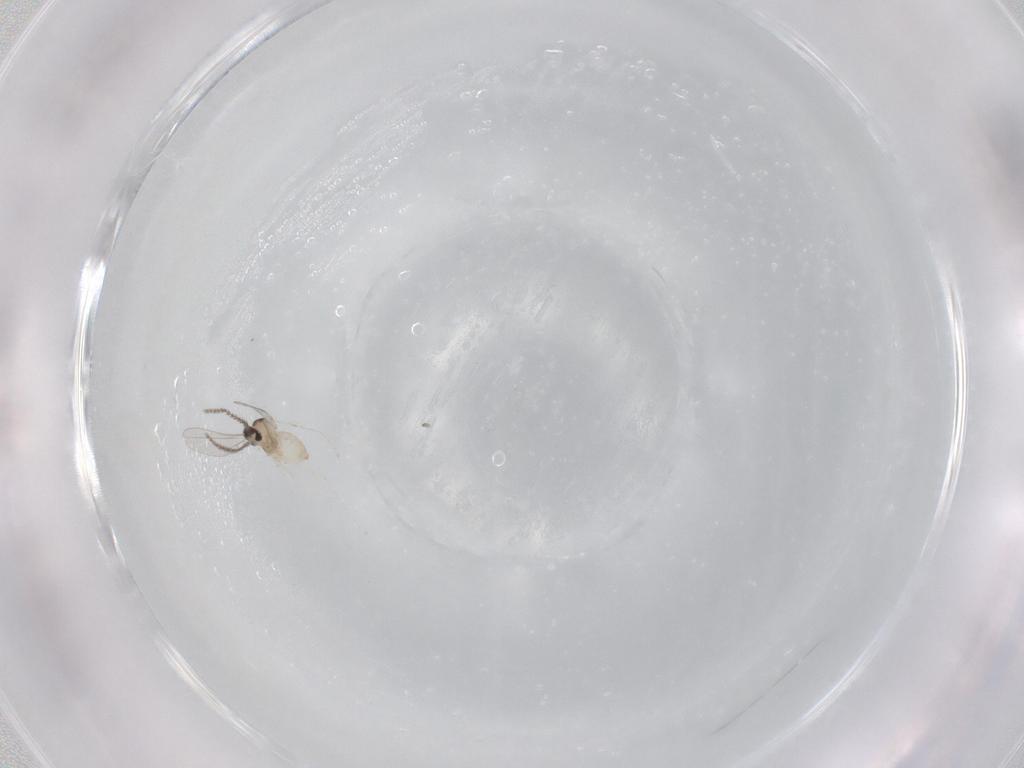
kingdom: Animalia
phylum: Arthropoda
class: Insecta
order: Diptera
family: Cecidomyiidae
